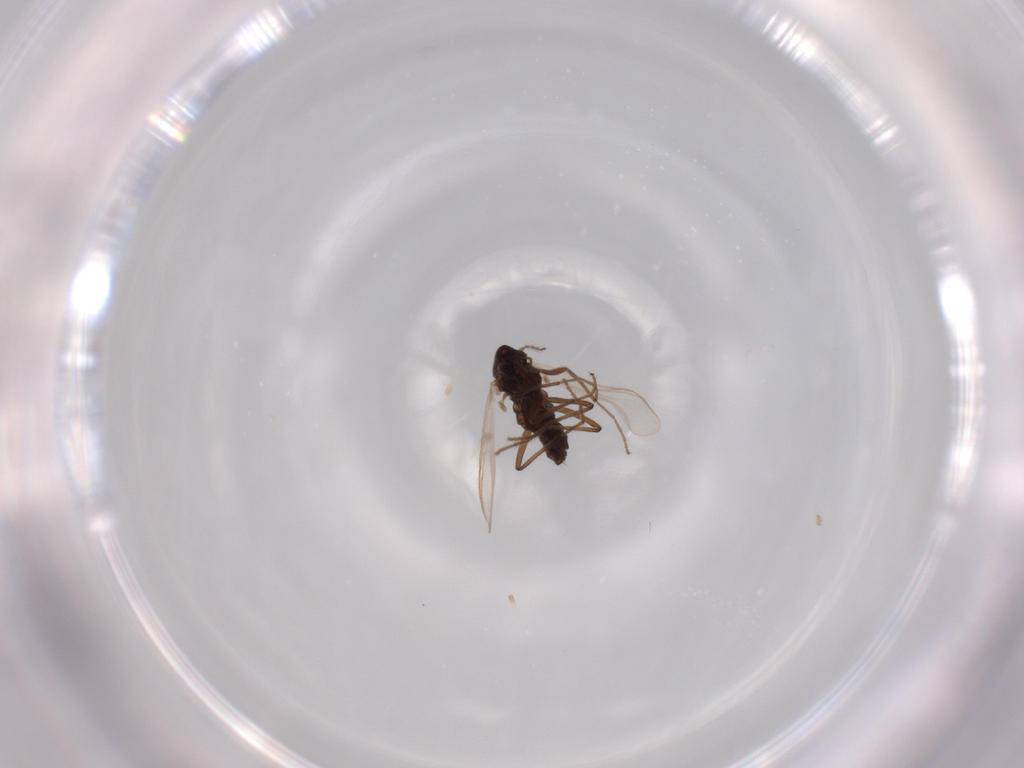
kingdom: Animalia
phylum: Arthropoda
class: Insecta
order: Diptera
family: Chironomidae
